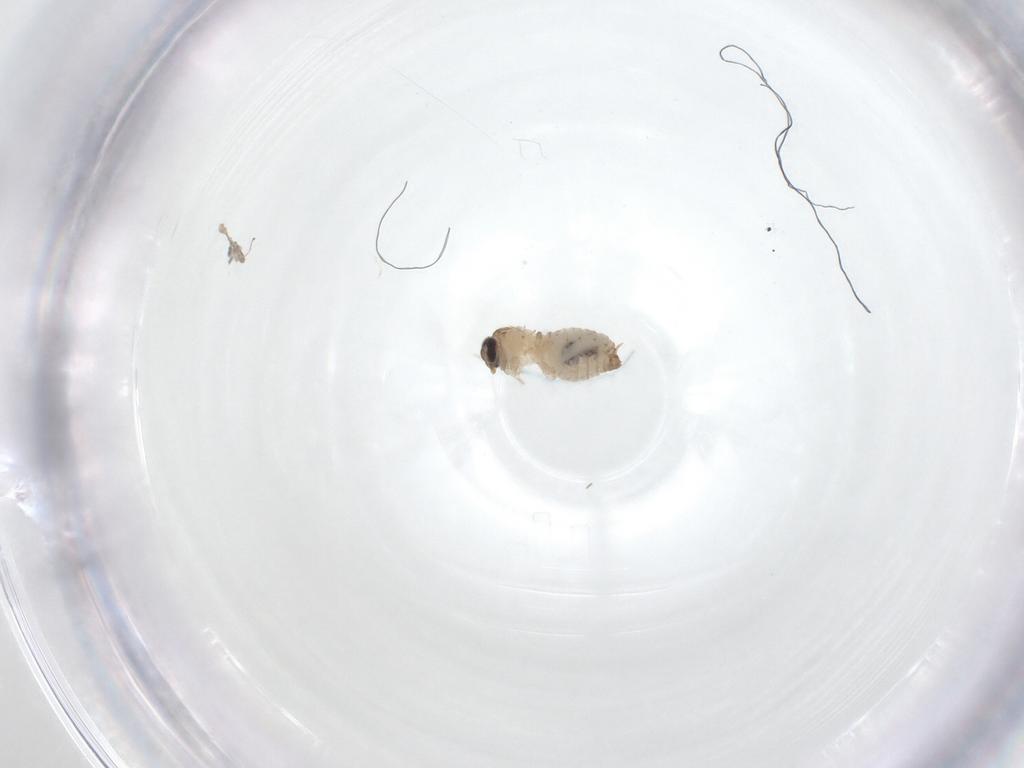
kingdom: Animalia
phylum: Arthropoda
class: Insecta
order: Diptera
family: Psychodidae
